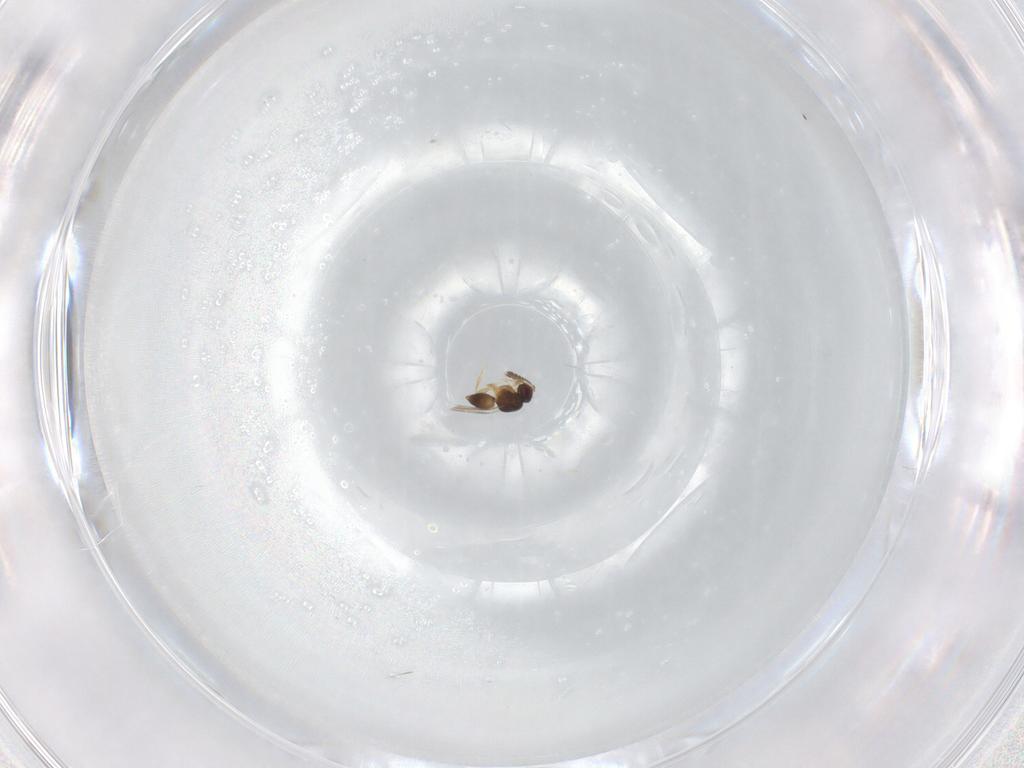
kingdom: Animalia
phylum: Arthropoda
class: Insecta
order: Hymenoptera
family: Ceraphronidae
